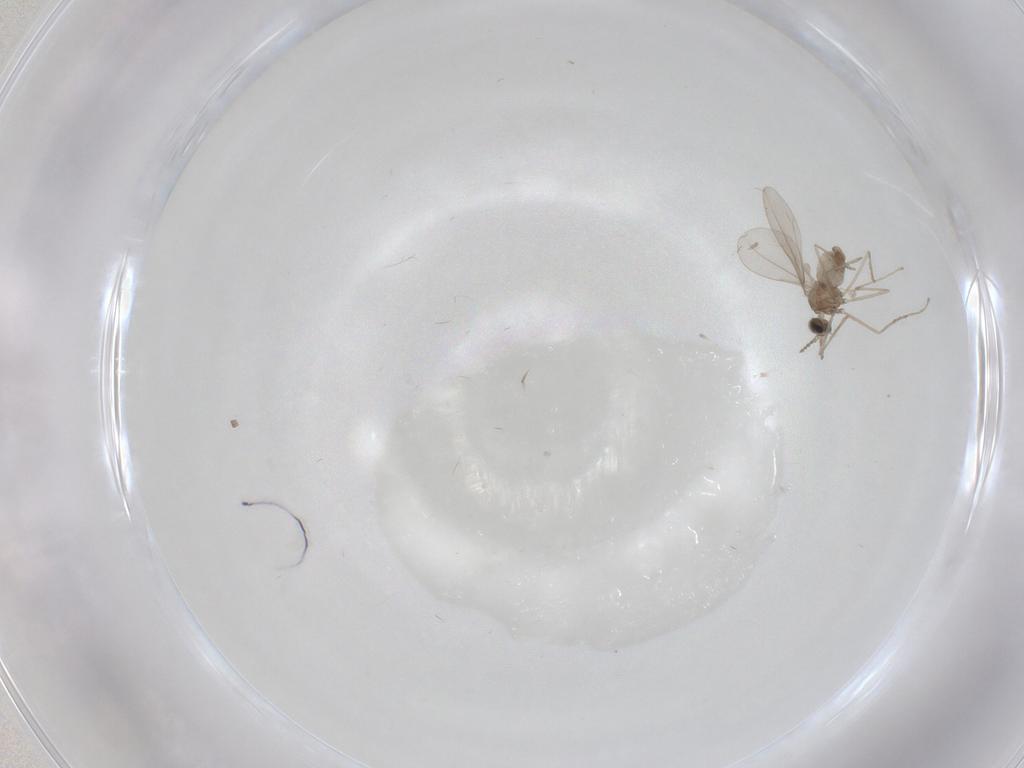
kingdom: Animalia
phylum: Arthropoda
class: Insecta
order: Diptera
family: Cecidomyiidae
